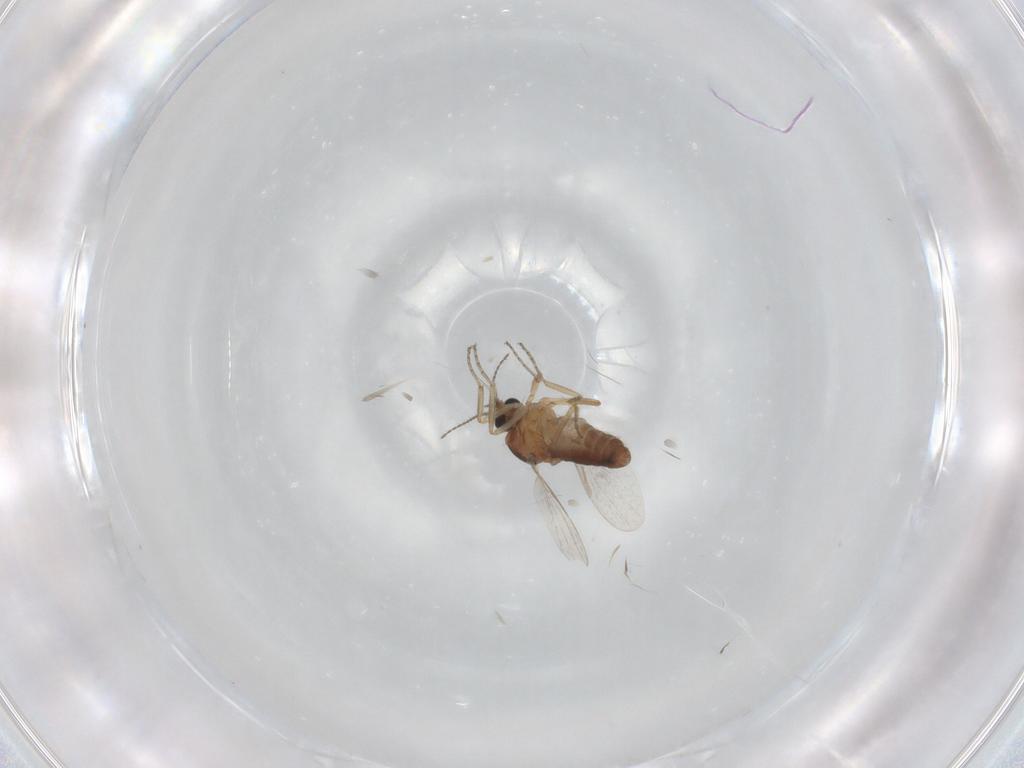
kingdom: Animalia
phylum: Arthropoda
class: Insecta
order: Diptera
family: Ceratopogonidae
